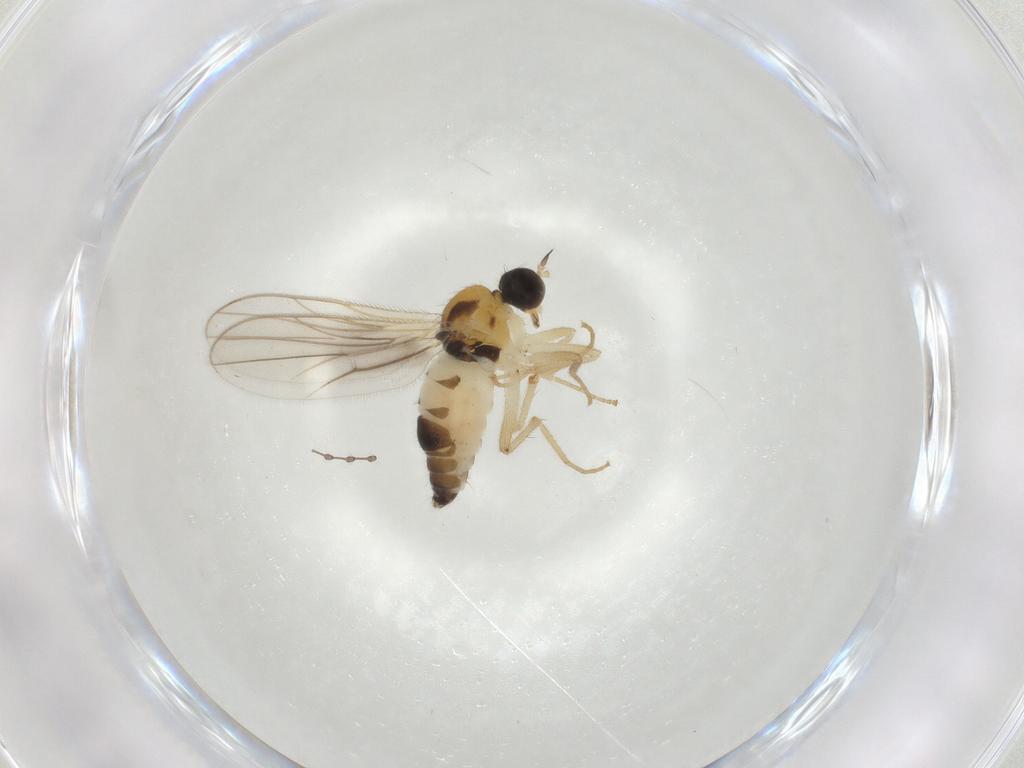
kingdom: Animalia
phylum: Arthropoda
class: Insecta
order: Diptera
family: Hybotidae
